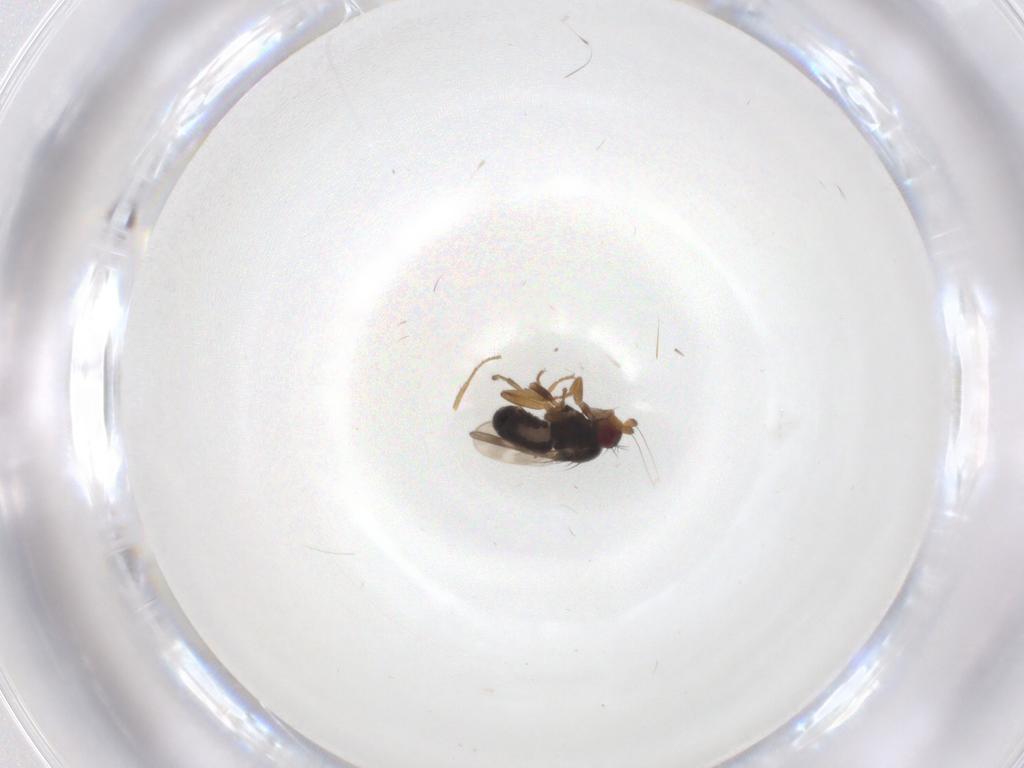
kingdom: Animalia
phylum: Arthropoda
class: Insecta
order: Diptera
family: Sphaeroceridae
